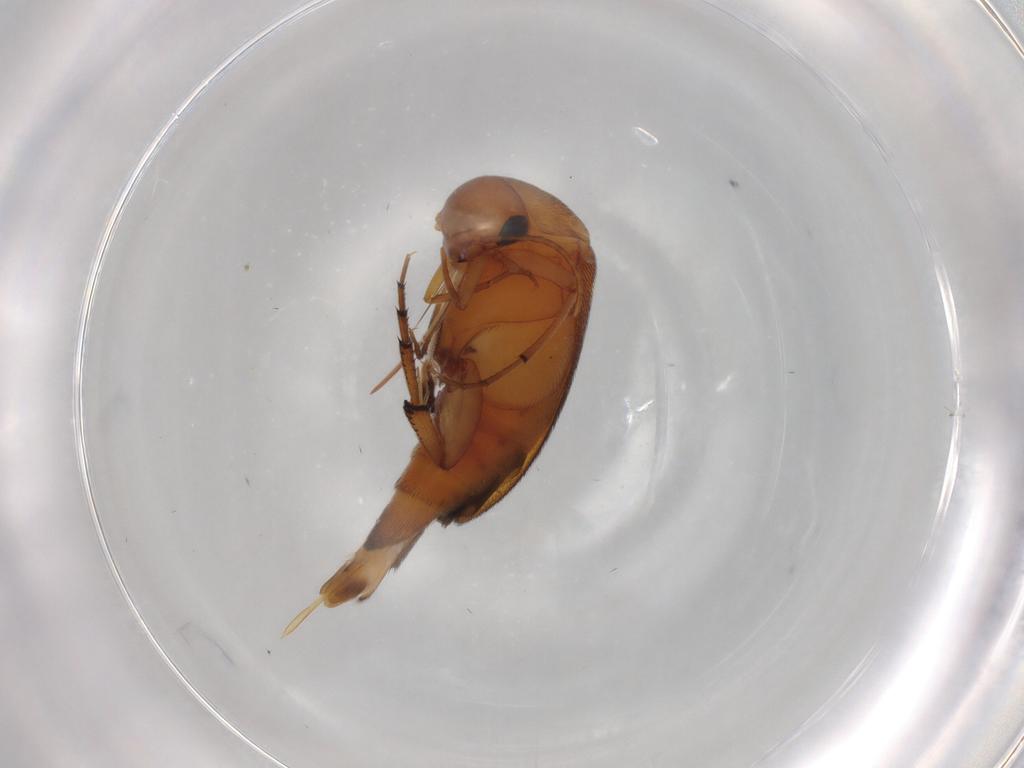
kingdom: Animalia
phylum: Arthropoda
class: Insecta
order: Coleoptera
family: Mordellidae
